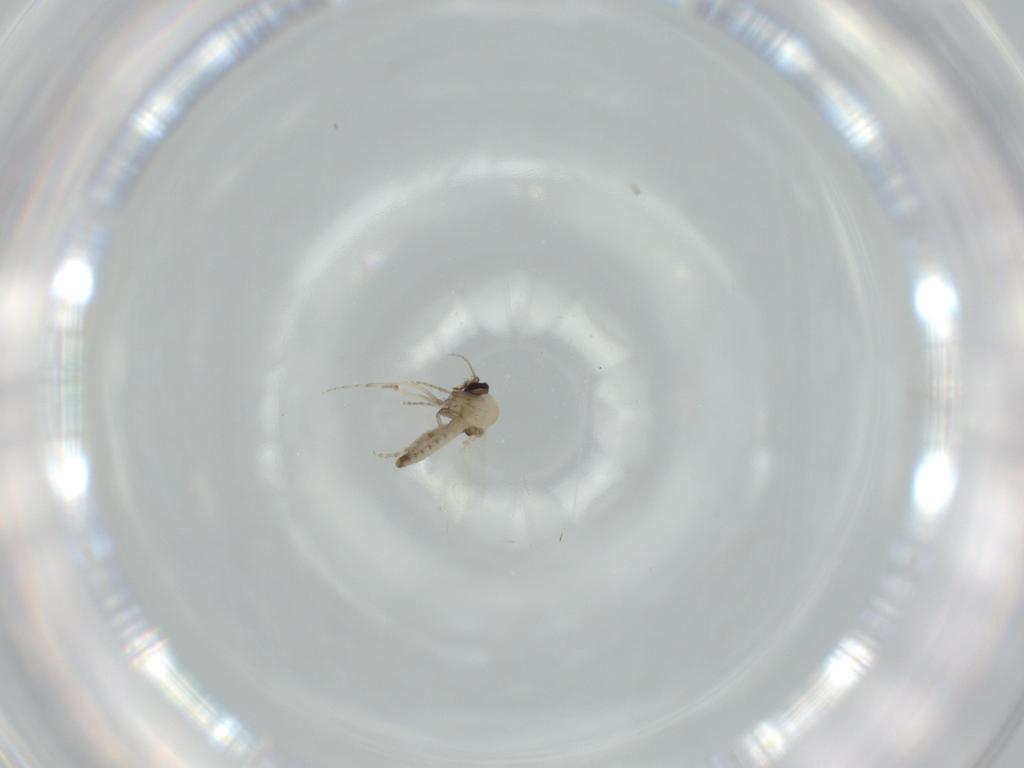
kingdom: Animalia
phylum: Arthropoda
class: Insecta
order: Diptera
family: Ceratopogonidae
